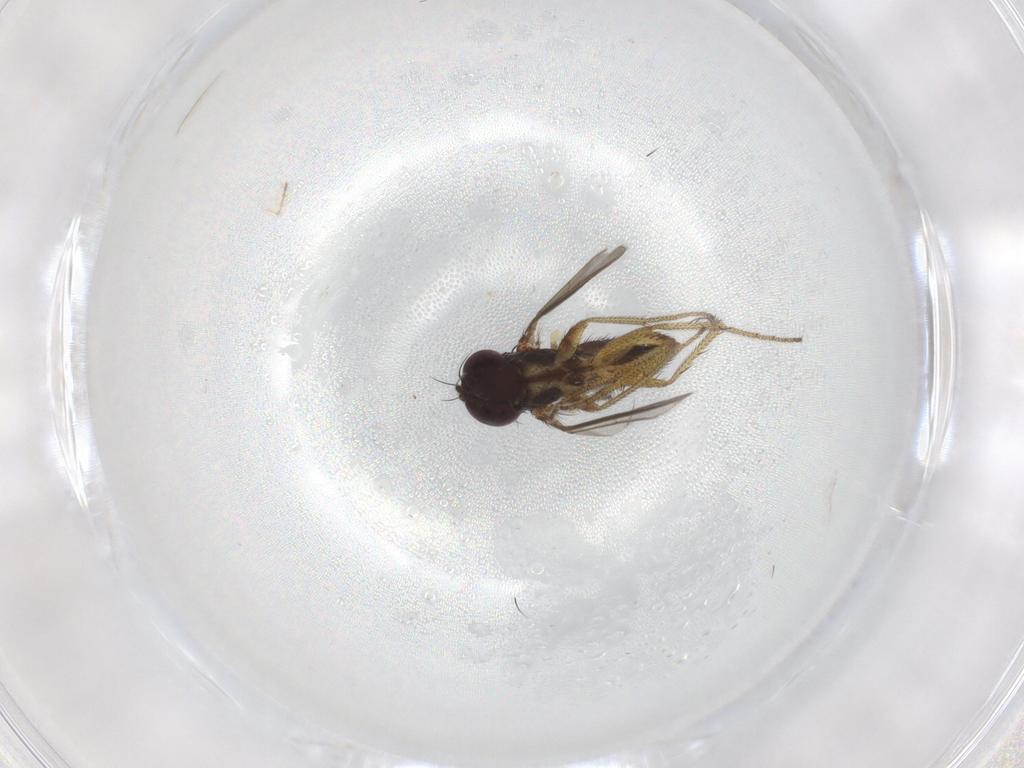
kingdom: Animalia
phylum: Arthropoda
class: Insecta
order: Diptera
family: Ceratopogonidae
